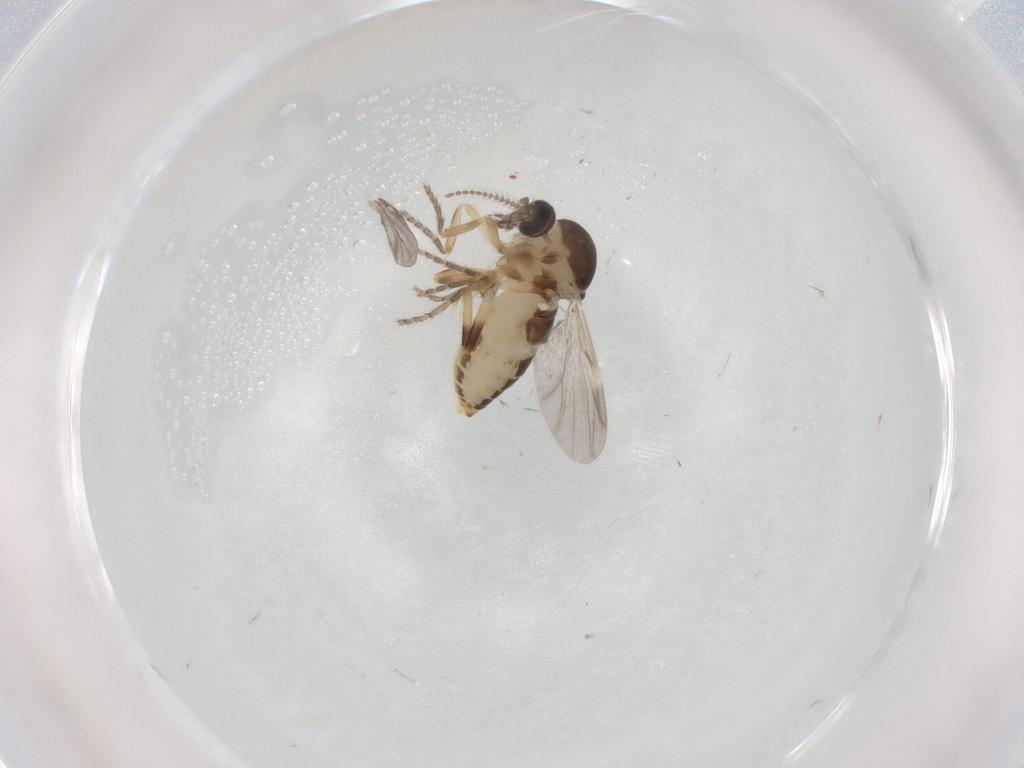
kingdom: Animalia
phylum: Arthropoda
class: Insecta
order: Diptera
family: Ceratopogonidae
